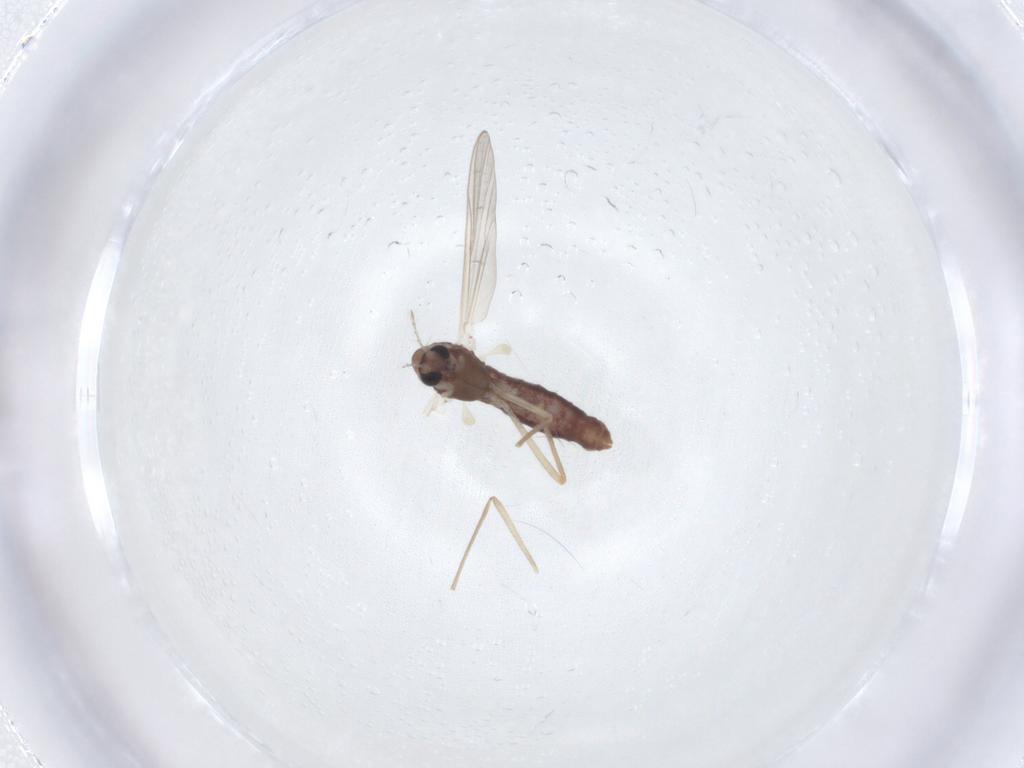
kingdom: Animalia
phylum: Arthropoda
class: Insecta
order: Diptera
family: Chironomidae
